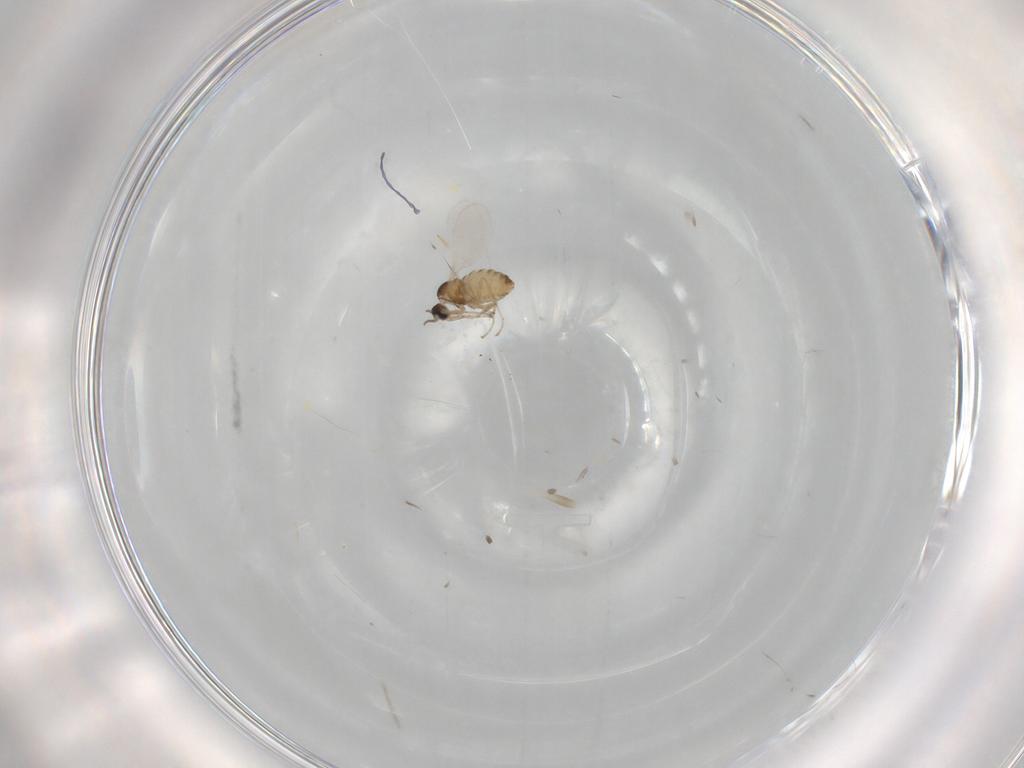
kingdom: Animalia
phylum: Arthropoda
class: Insecta
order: Diptera
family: Cecidomyiidae
